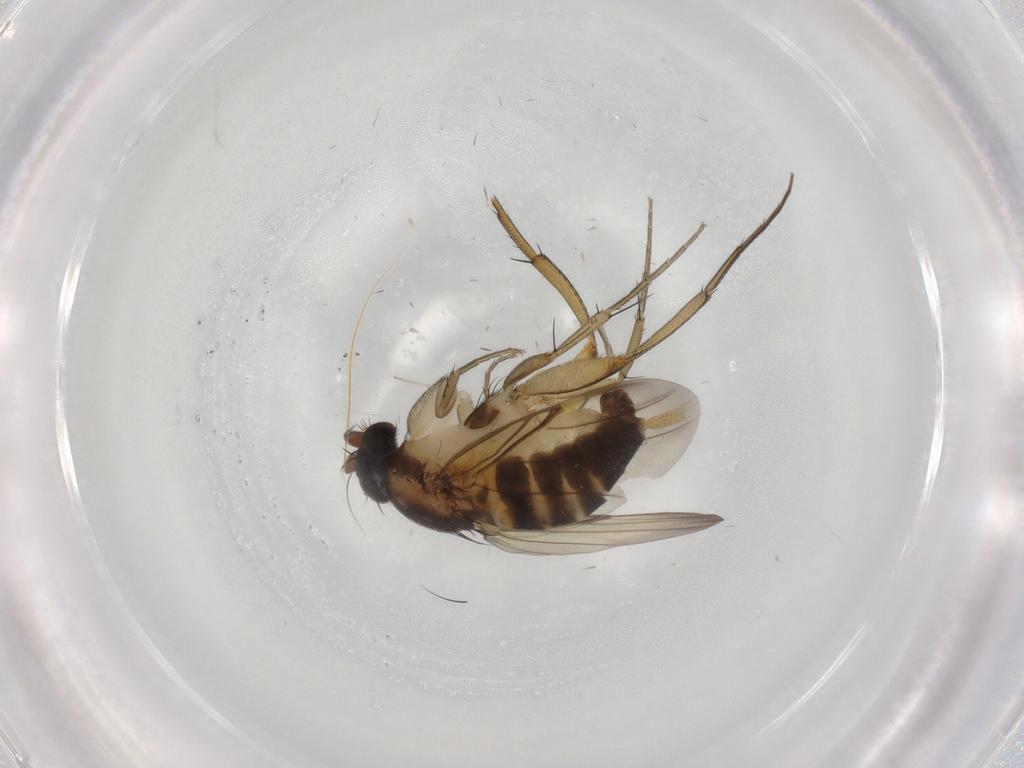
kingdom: Animalia
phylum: Arthropoda
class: Insecta
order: Diptera
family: Phoridae
